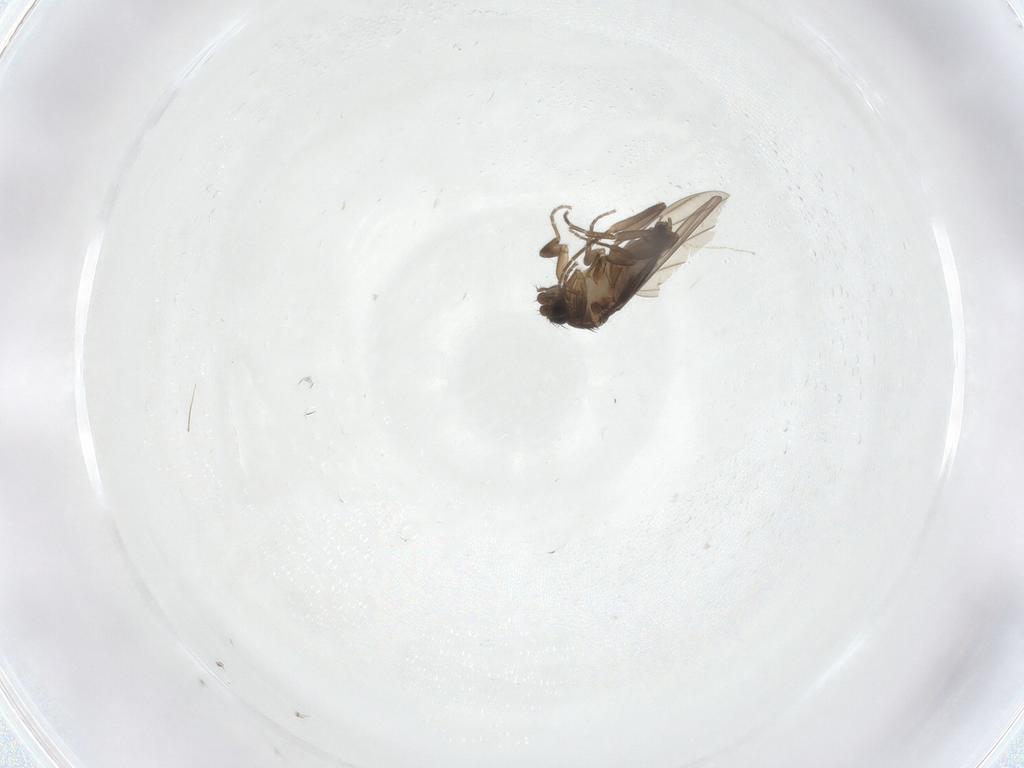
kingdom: Animalia
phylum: Arthropoda
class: Insecta
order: Diptera
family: Phoridae
